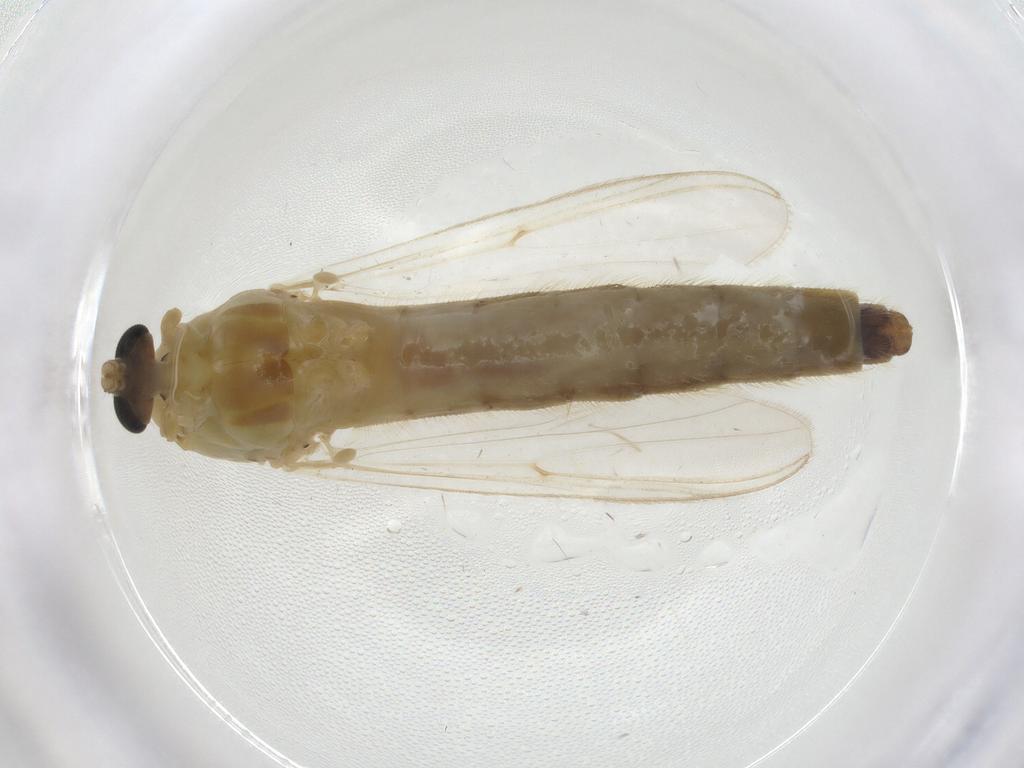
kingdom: Animalia
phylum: Arthropoda
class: Insecta
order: Diptera
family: Chironomidae
